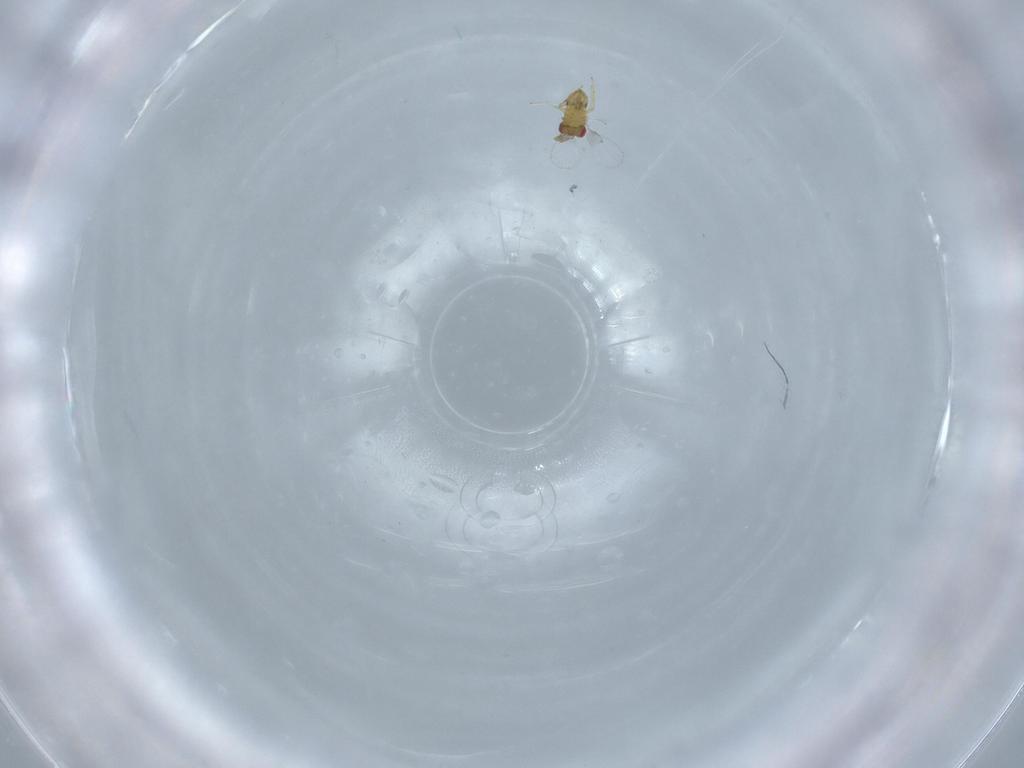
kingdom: Animalia
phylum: Arthropoda
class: Insecta
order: Hymenoptera
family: Trichogrammatidae
